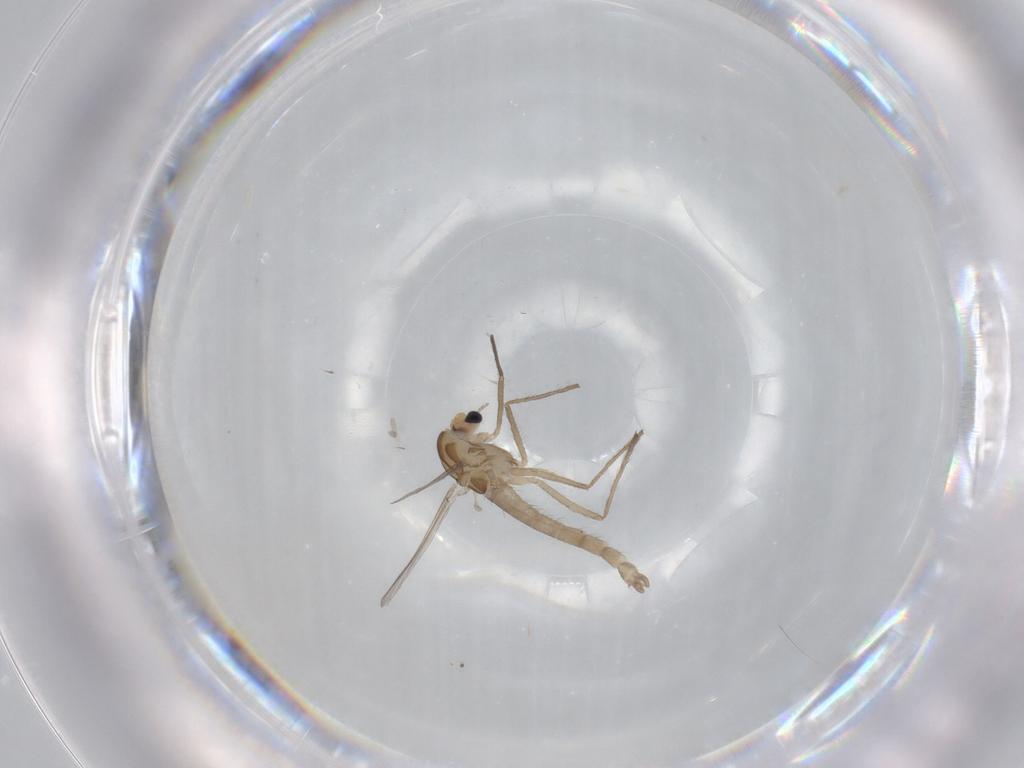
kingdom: Animalia
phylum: Arthropoda
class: Insecta
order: Diptera
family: Chironomidae
